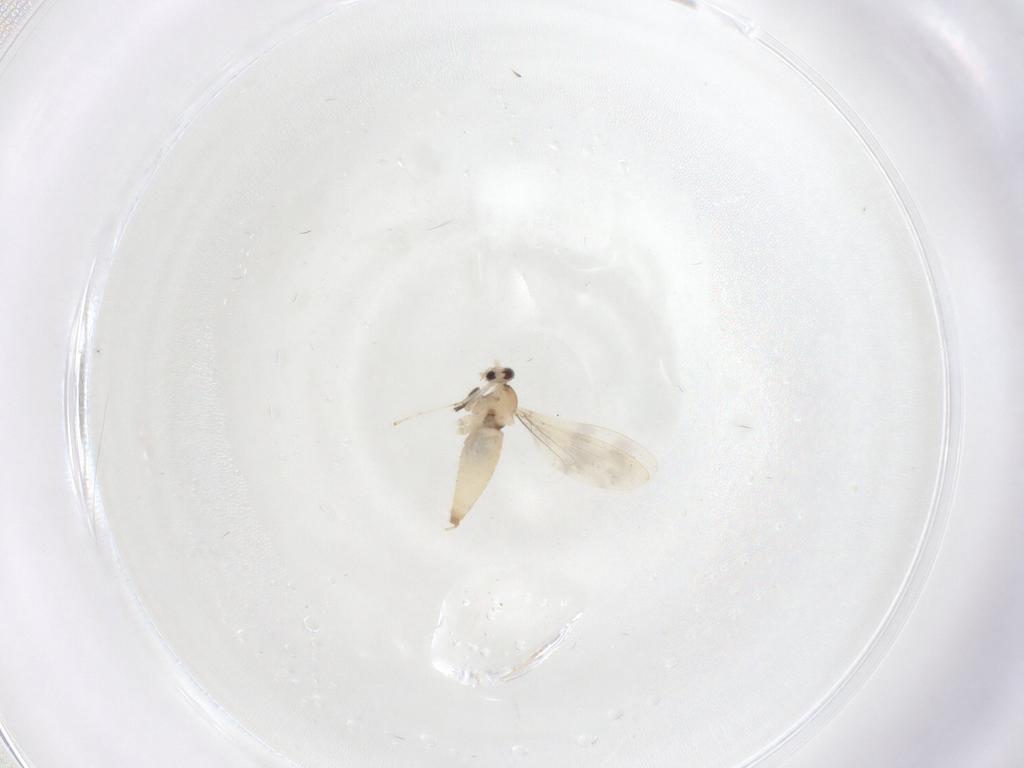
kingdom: Animalia
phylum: Arthropoda
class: Insecta
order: Diptera
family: Cecidomyiidae
